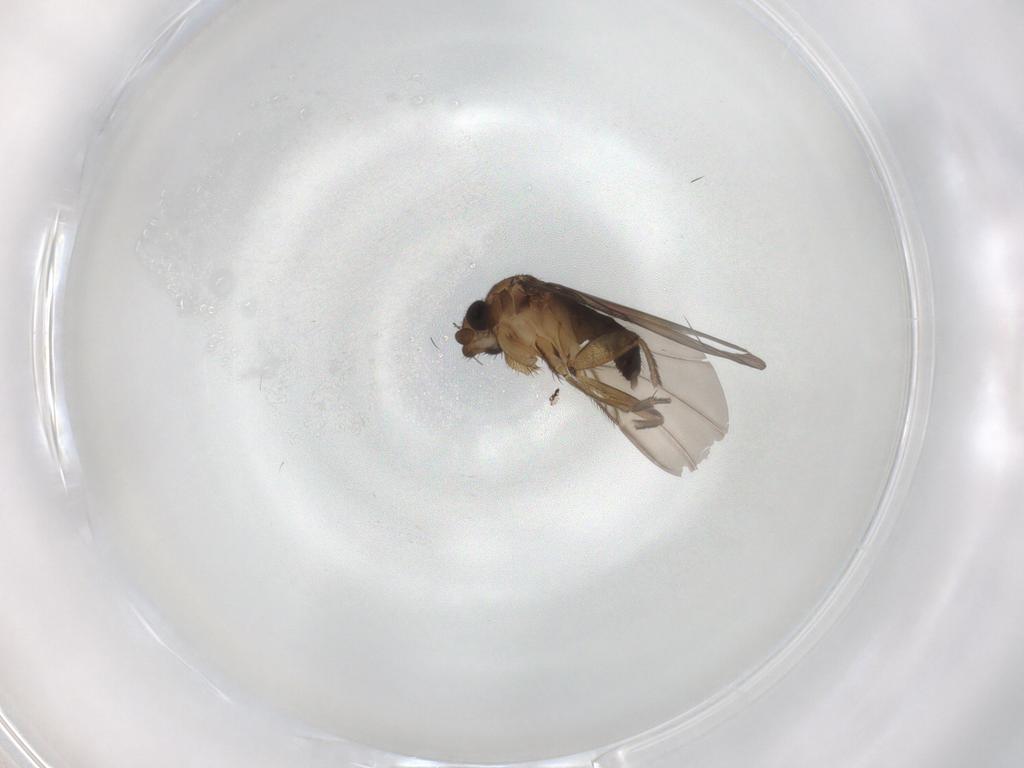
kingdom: Animalia
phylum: Arthropoda
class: Insecta
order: Diptera
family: Phoridae
